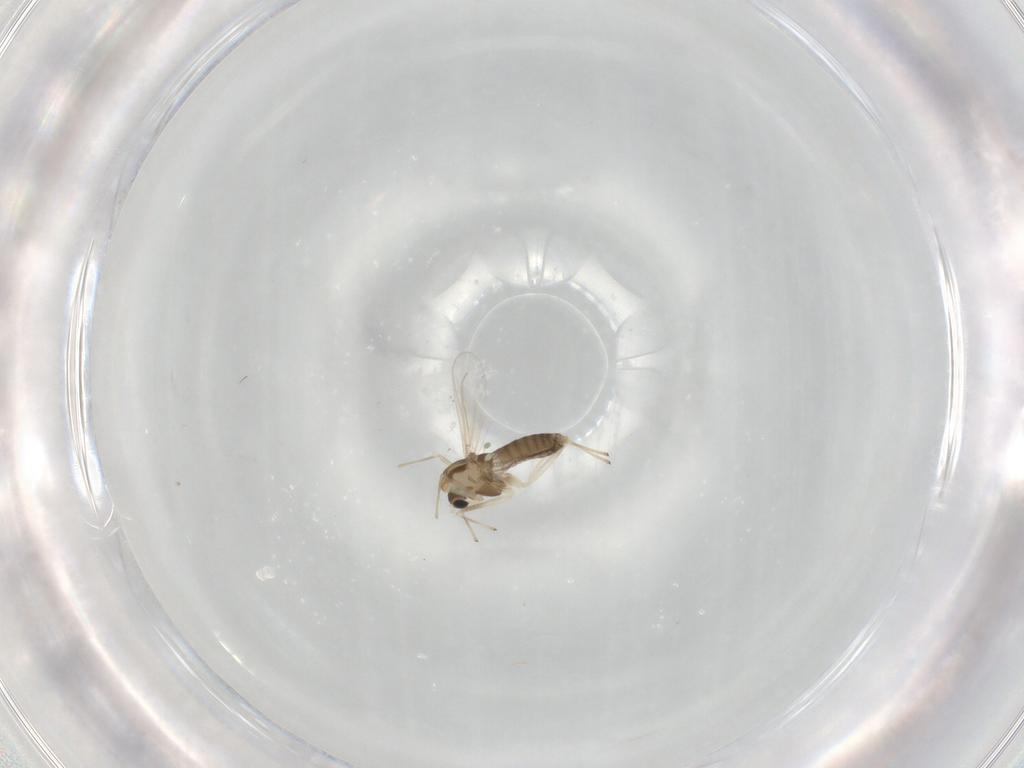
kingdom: Animalia
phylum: Arthropoda
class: Insecta
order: Diptera
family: Chironomidae
